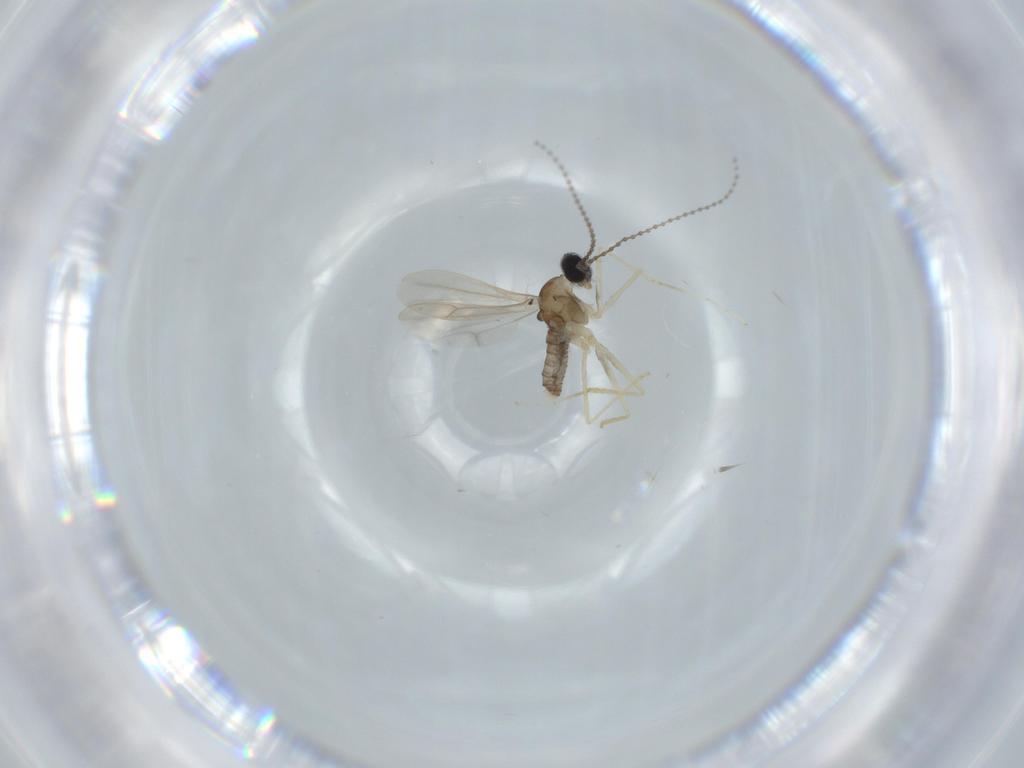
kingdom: Animalia
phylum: Arthropoda
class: Insecta
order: Diptera
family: Cecidomyiidae
